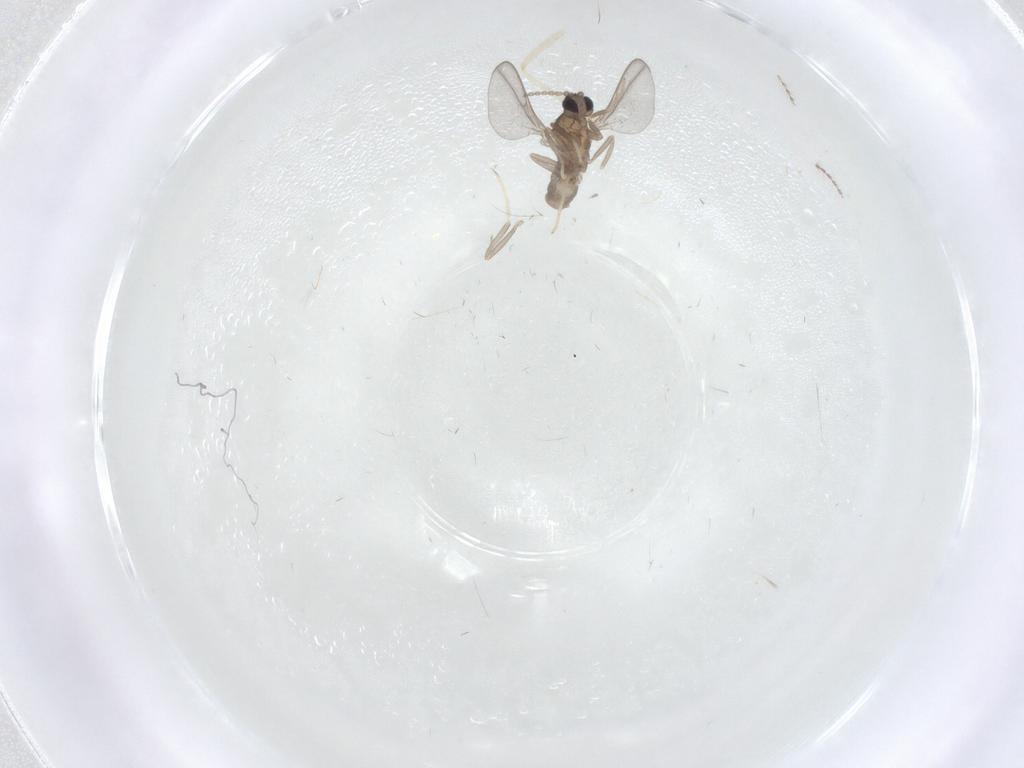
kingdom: Animalia
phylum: Arthropoda
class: Insecta
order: Diptera
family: Cecidomyiidae
